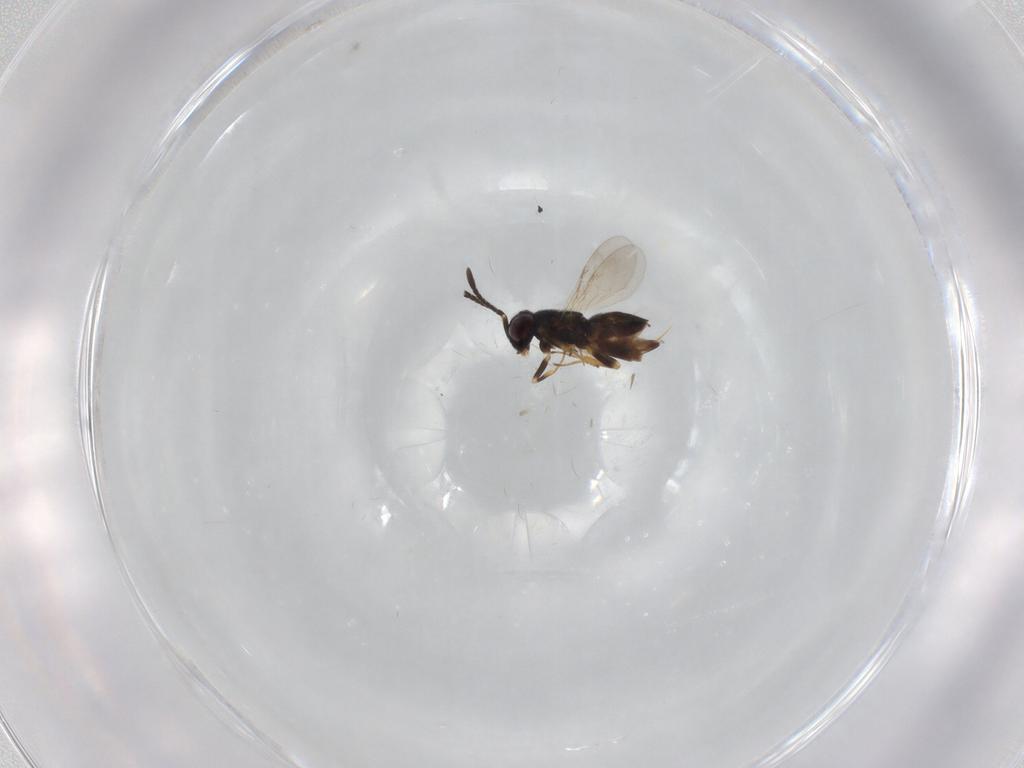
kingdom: Animalia
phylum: Arthropoda
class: Insecta
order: Hymenoptera
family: Encyrtidae
